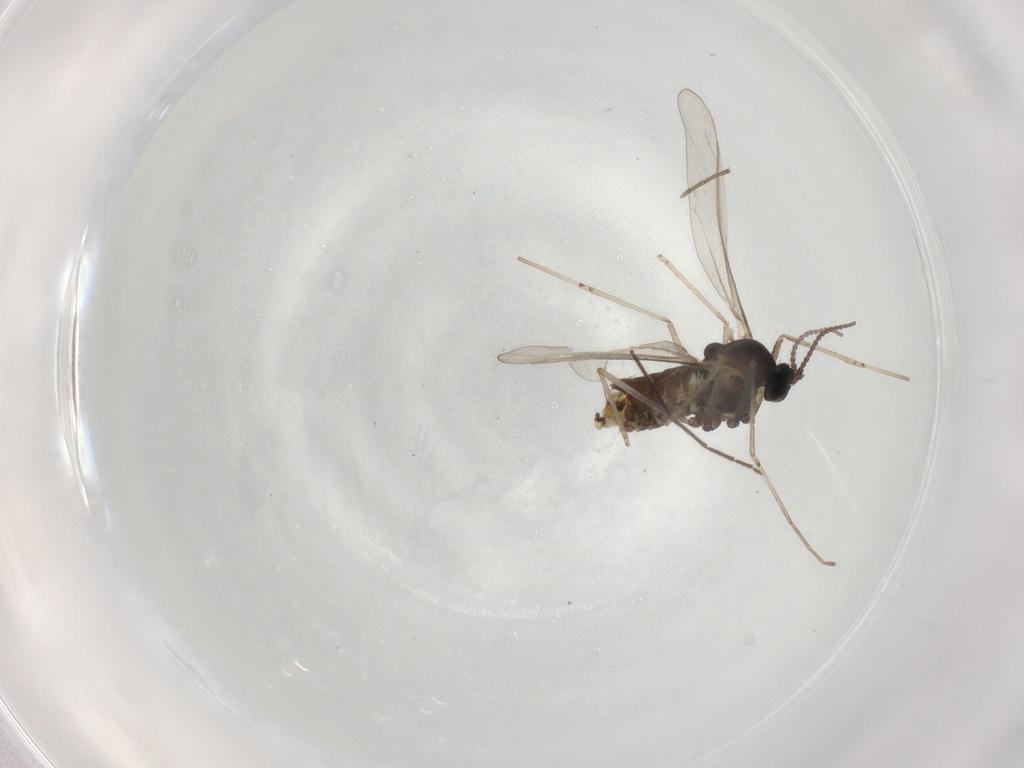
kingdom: Animalia
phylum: Arthropoda
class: Insecta
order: Diptera
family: Cecidomyiidae
